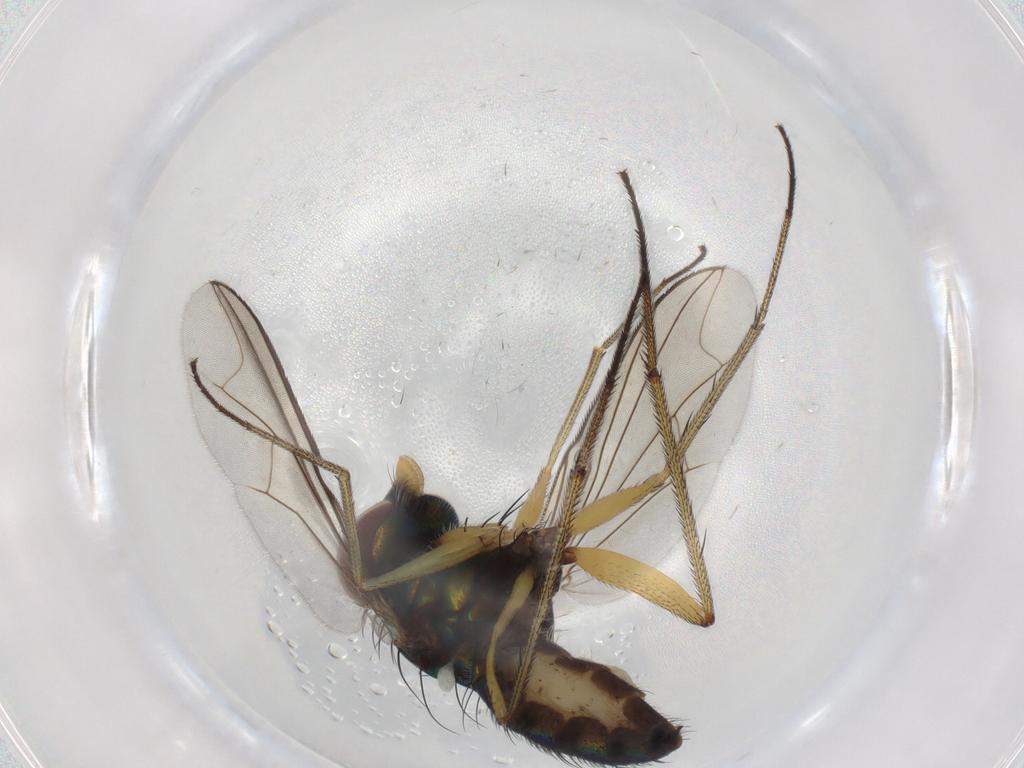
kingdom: Animalia
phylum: Arthropoda
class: Insecta
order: Diptera
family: Dolichopodidae
